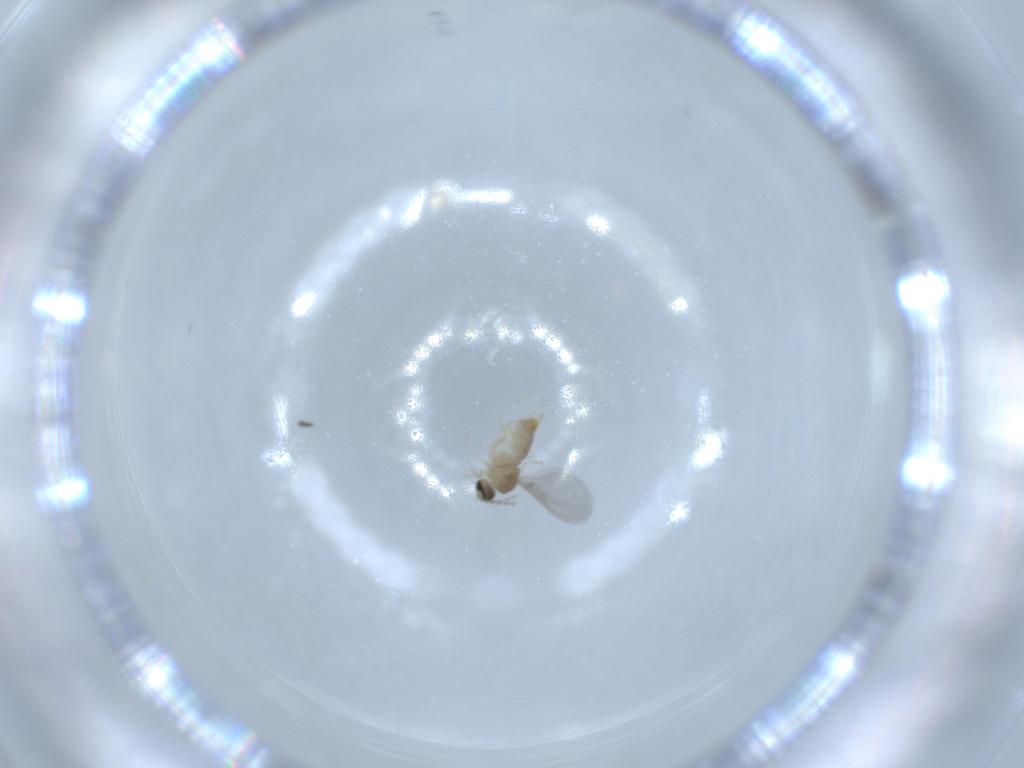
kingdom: Animalia
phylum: Arthropoda
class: Insecta
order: Diptera
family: Cecidomyiidae
